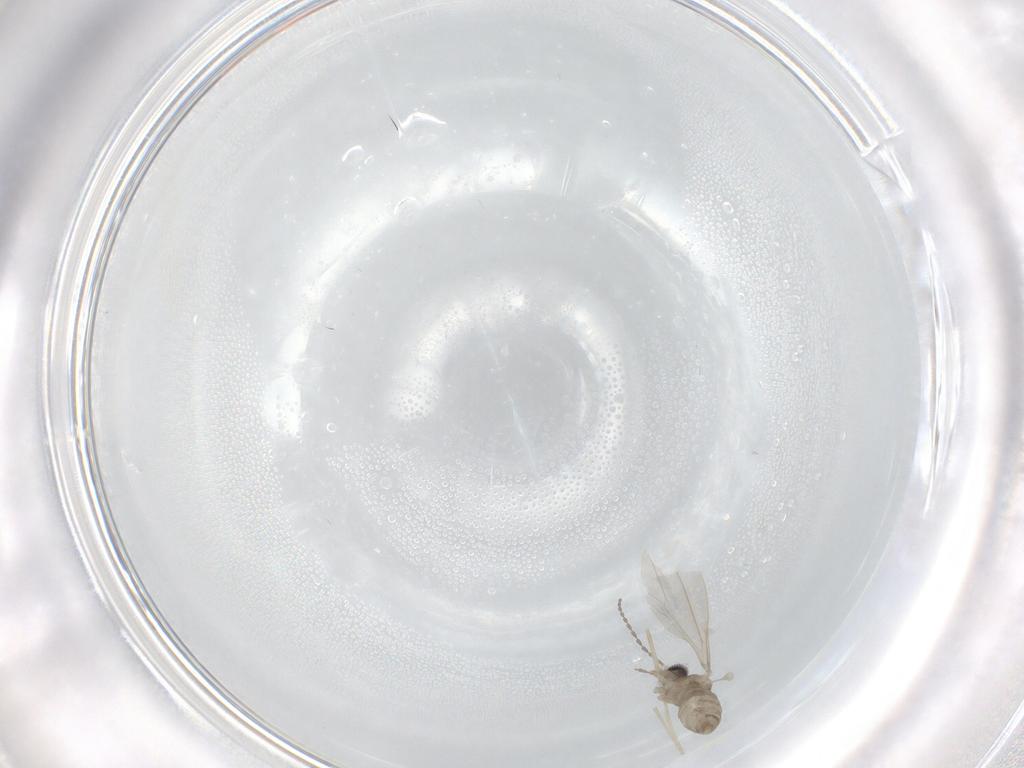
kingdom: Animalia
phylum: Arthropoda
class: Insecta
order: Diptera
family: Cecidomyiidae
